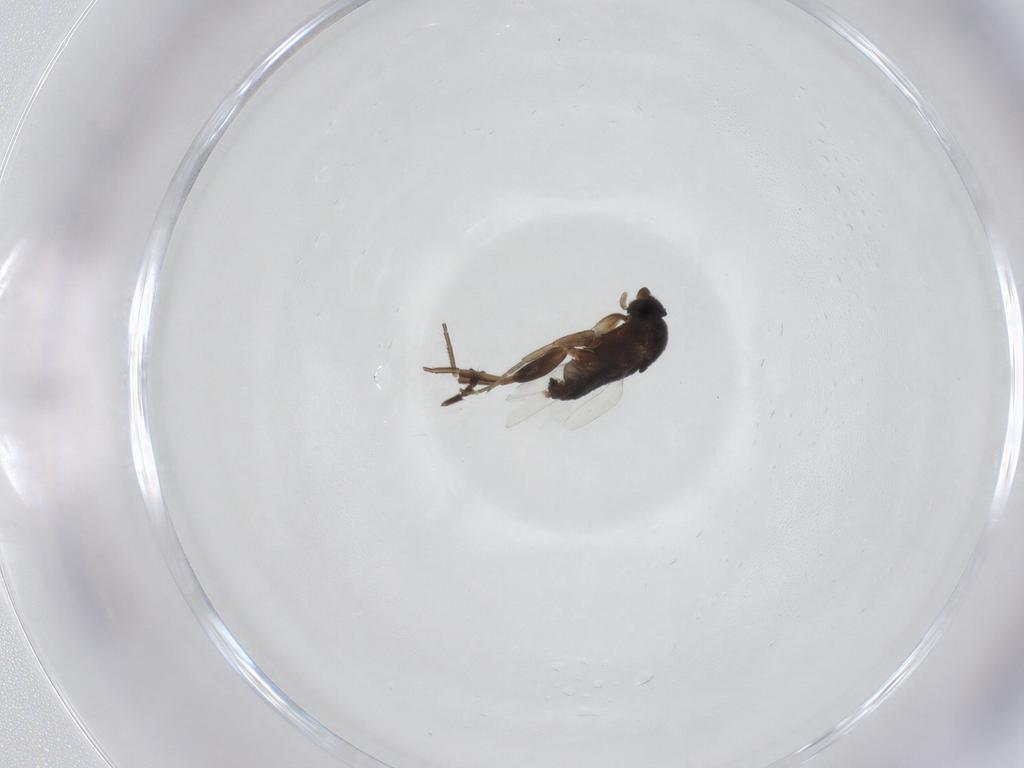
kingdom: Animalia
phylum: Arthropoda
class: Insecta
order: Diptera
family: Phoridae
